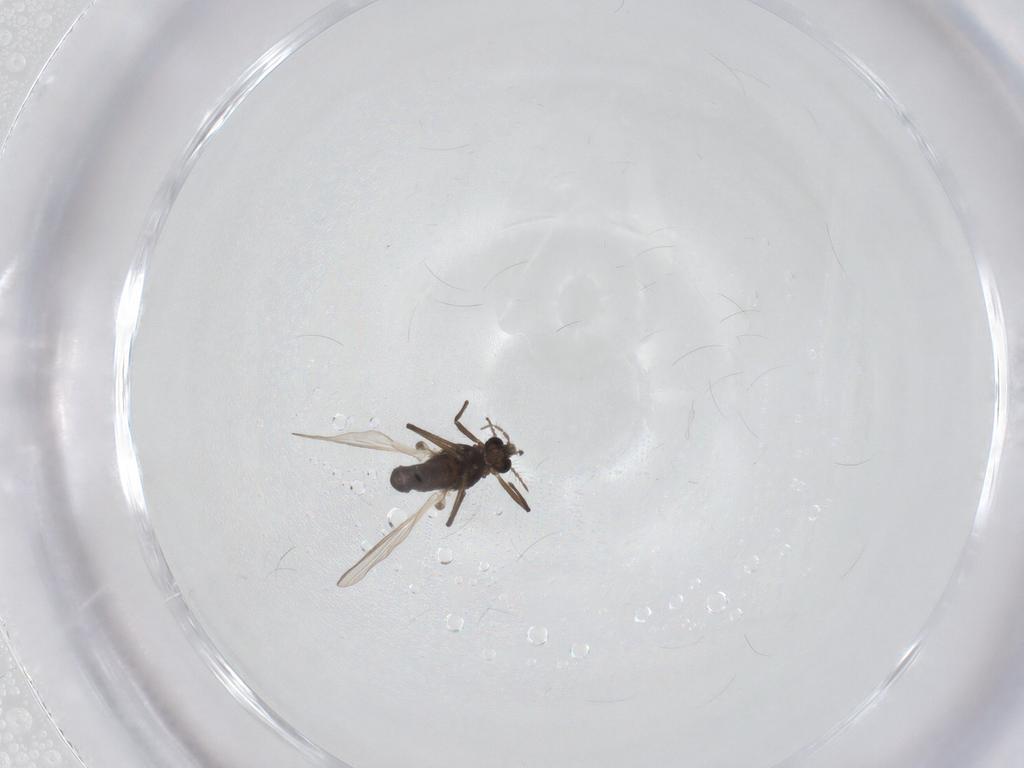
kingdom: Animalia
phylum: Arthropoda
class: Insecta
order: Diptera
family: Chironomidae
